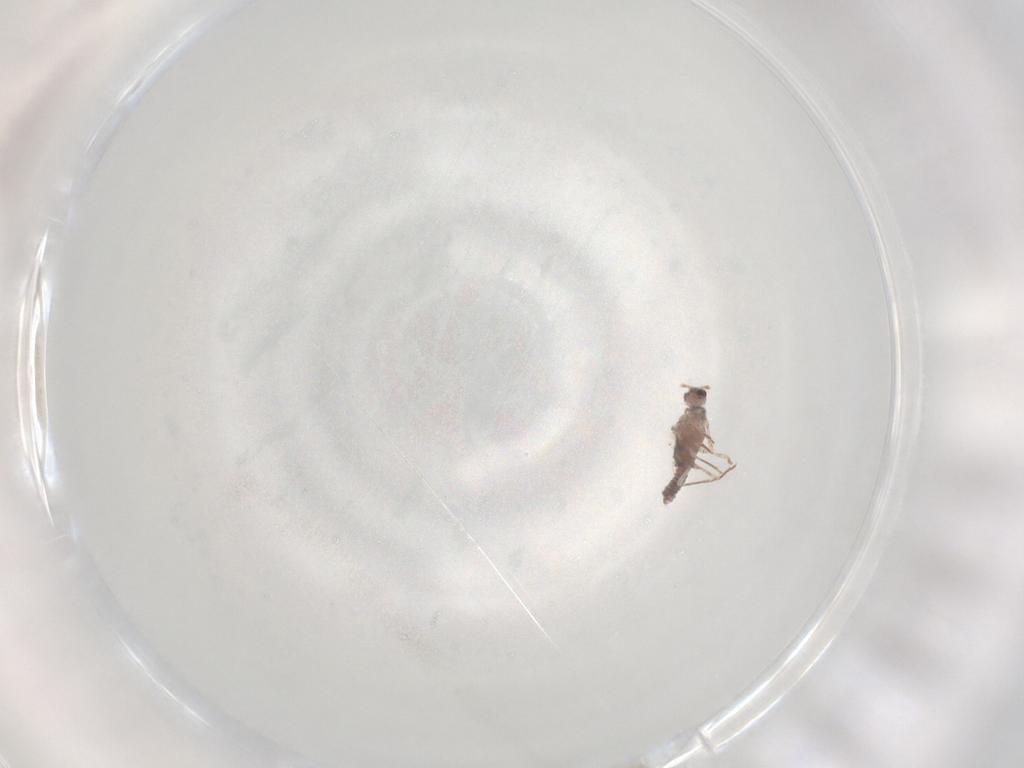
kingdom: Animalia
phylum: Arthropoda
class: Insecta
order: Hemiptera
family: Pseudococcidae
